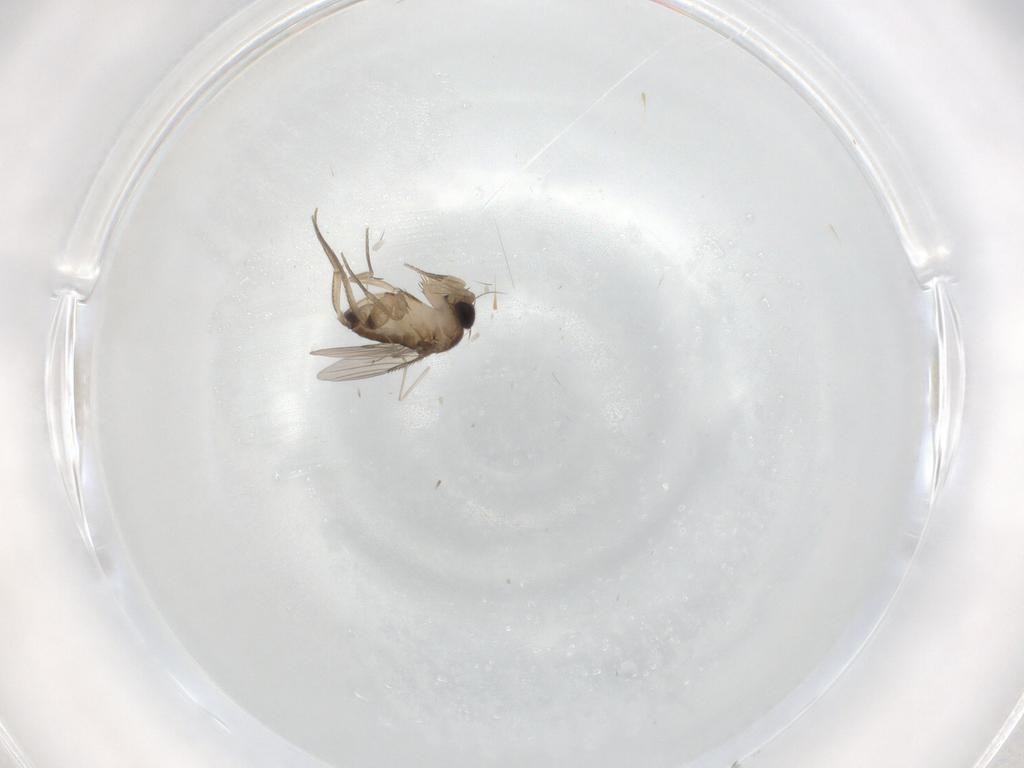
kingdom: Animalia
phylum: Arthropoda
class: Insecta
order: Diptera
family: Phoridae
